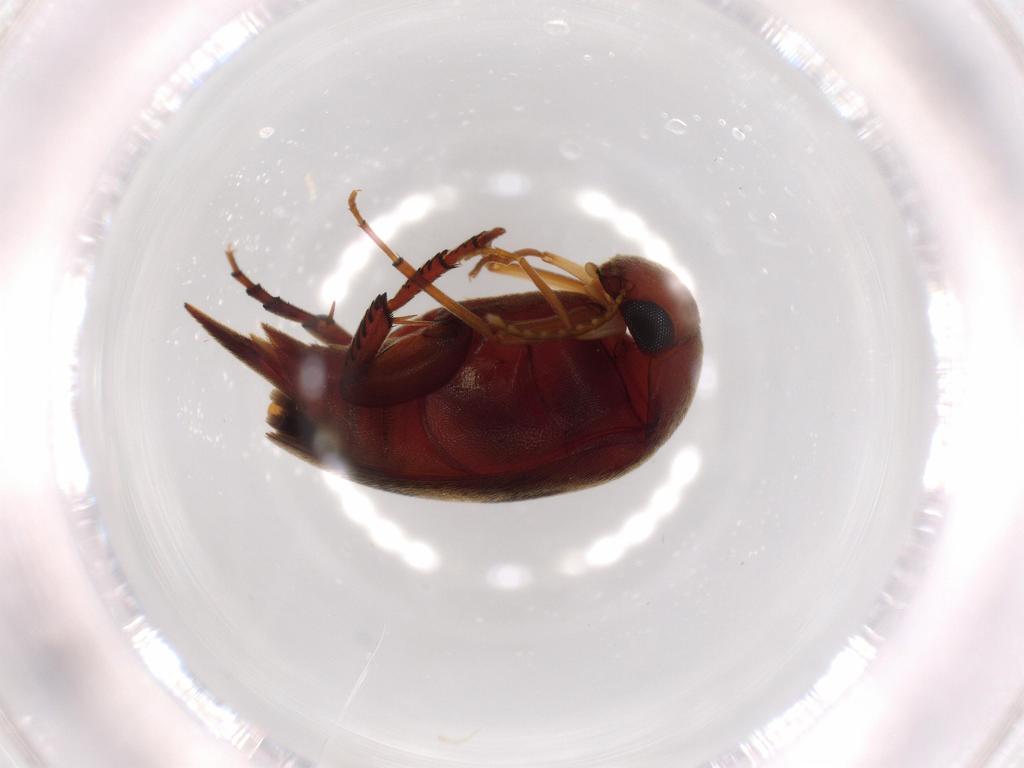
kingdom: Animalia
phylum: Arthropoda
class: Insecta
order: Coleoptera
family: Mordellidae
